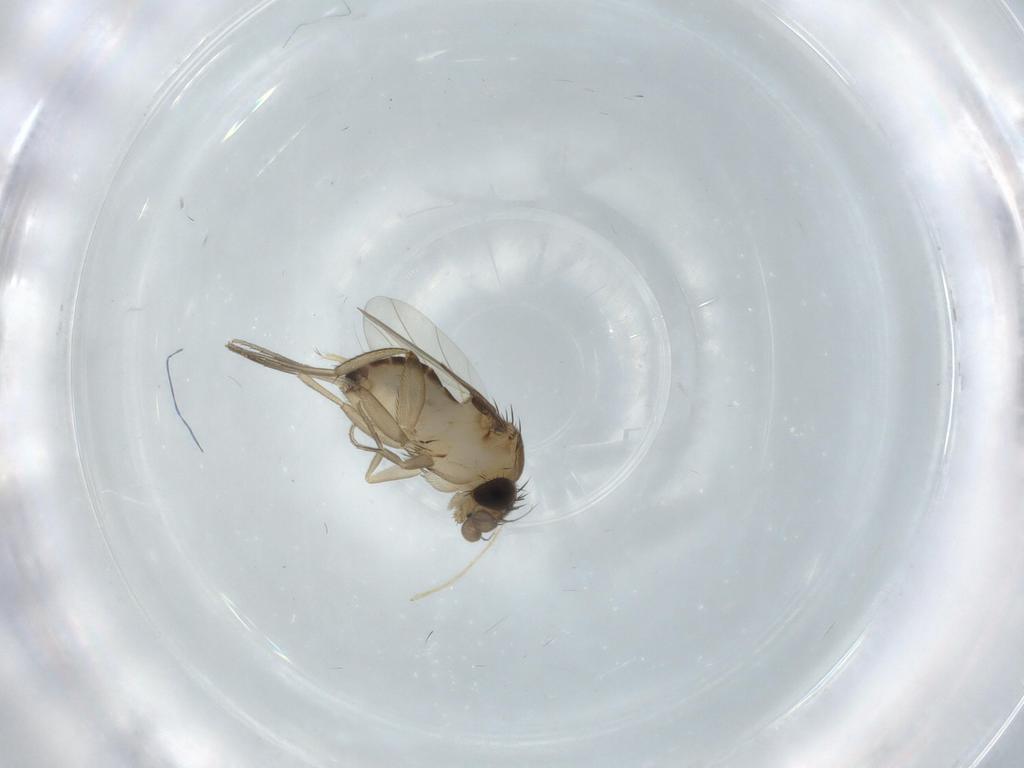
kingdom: Animalia
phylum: Arthropoda
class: Insecta
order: Diptera
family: Phoridae
